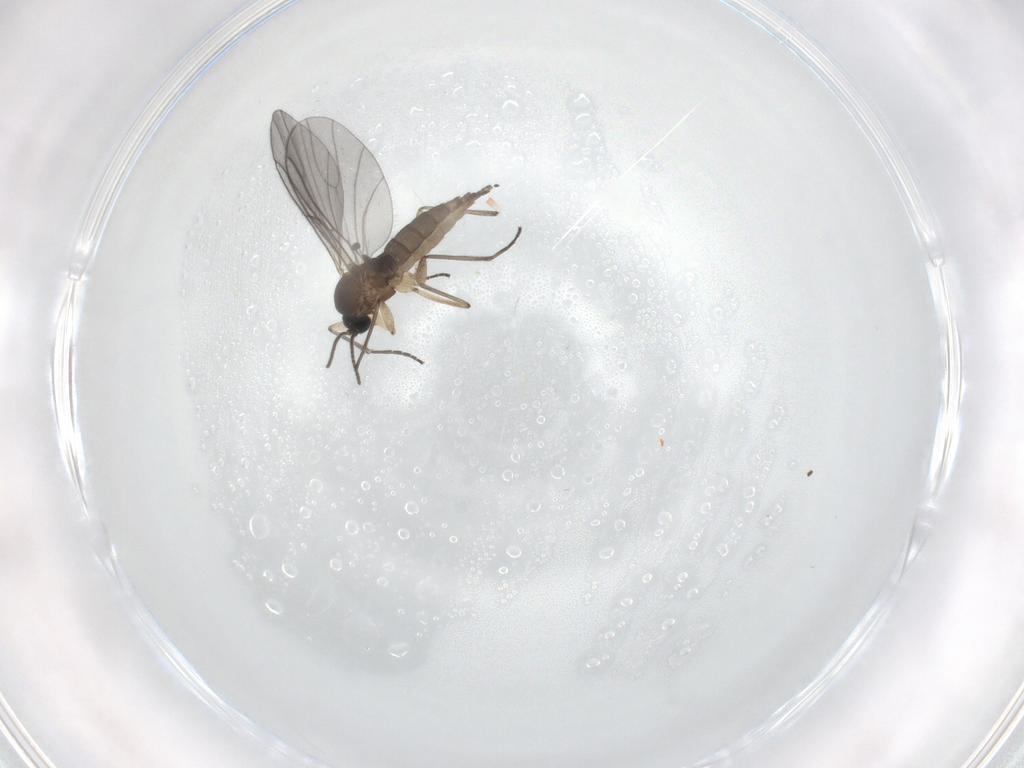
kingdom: Animalia
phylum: Arthropoda
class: Insecta
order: Diptera
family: Sciaridae
